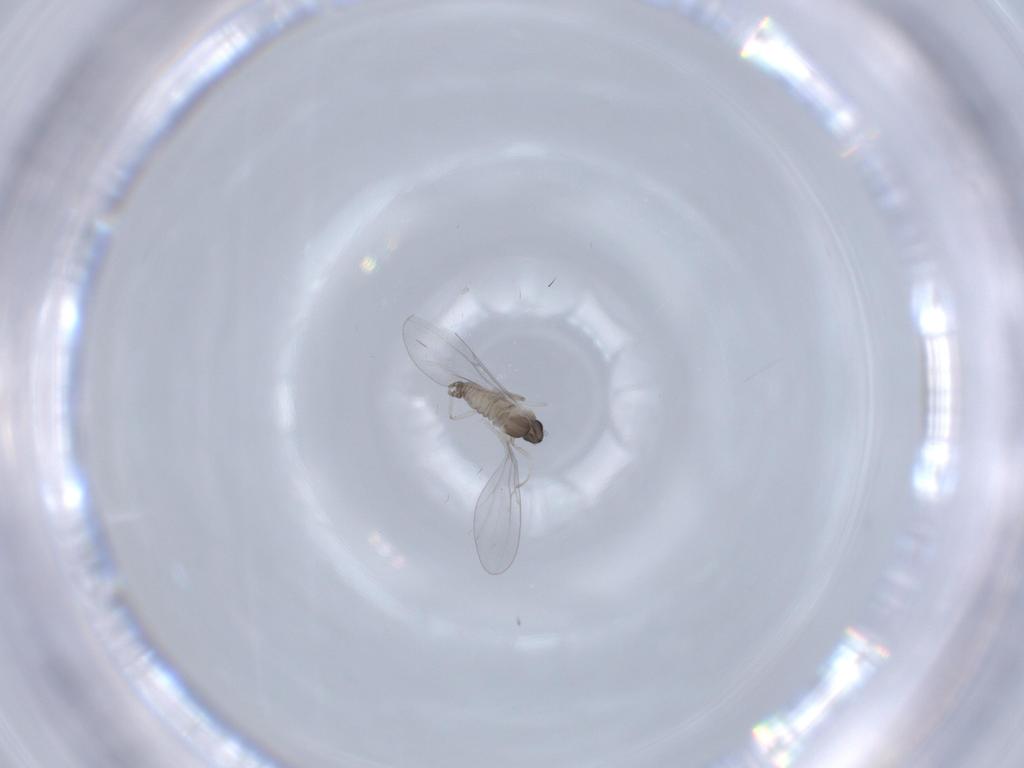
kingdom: Animalia
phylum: Arthropoda
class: Insecta
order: Diptera
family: Cecidomyiidae
